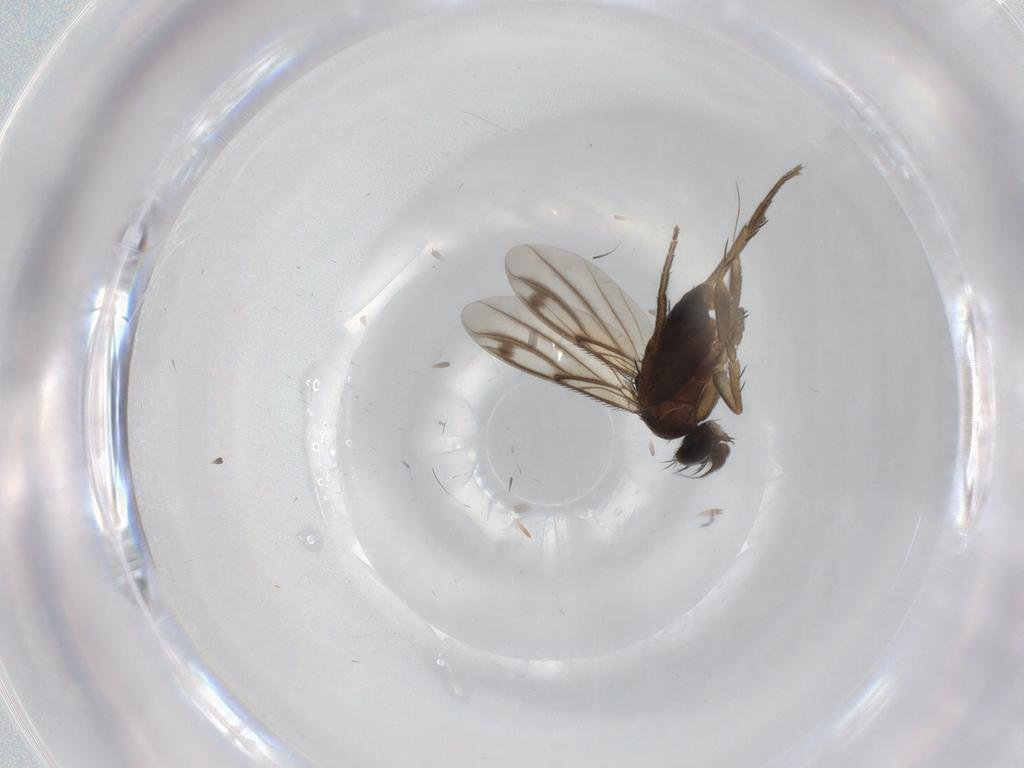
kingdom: Animalia
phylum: Arthropoda
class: Insecta
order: Diptera
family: Phoridae
